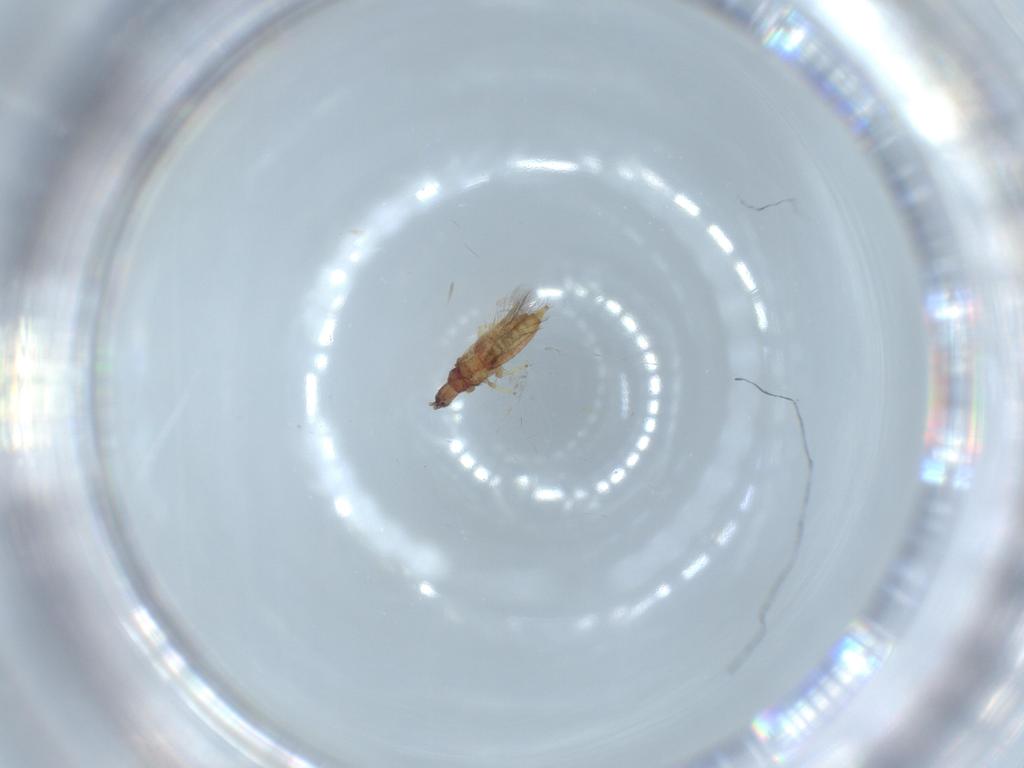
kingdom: Animalia
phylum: Arthropoda
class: Insecta
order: Thysanoptera
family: Phlaeothripidae
